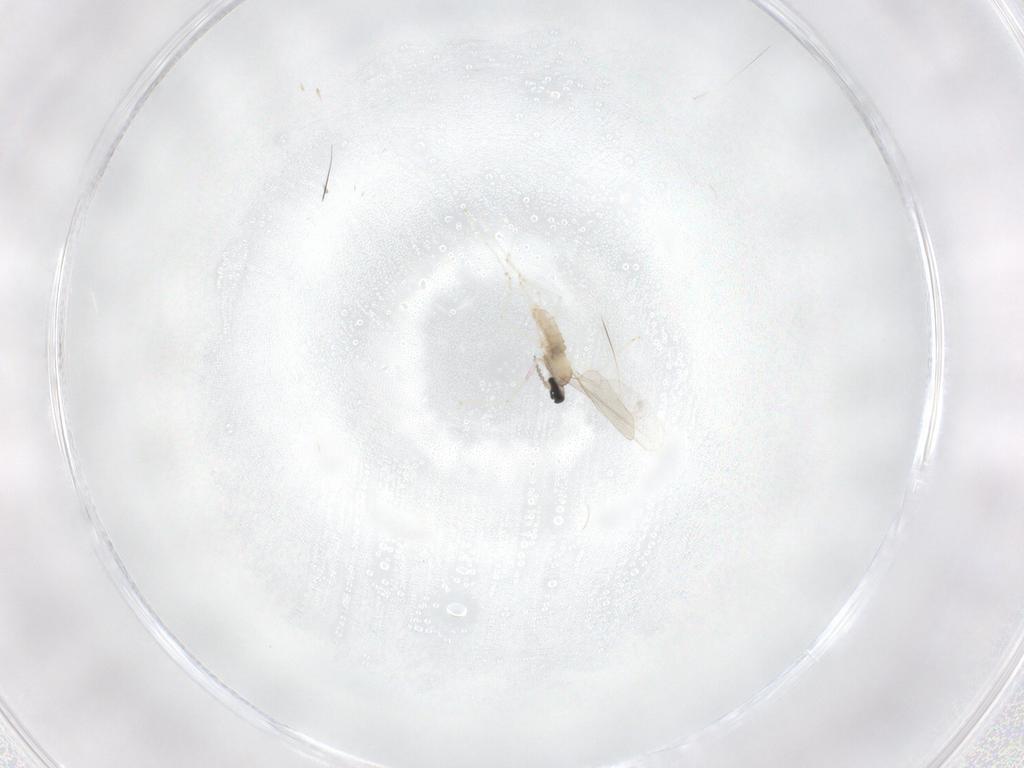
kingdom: Animalia
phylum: Arthropoda
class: Insecta
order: Diptera
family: Cecidomyiidae
